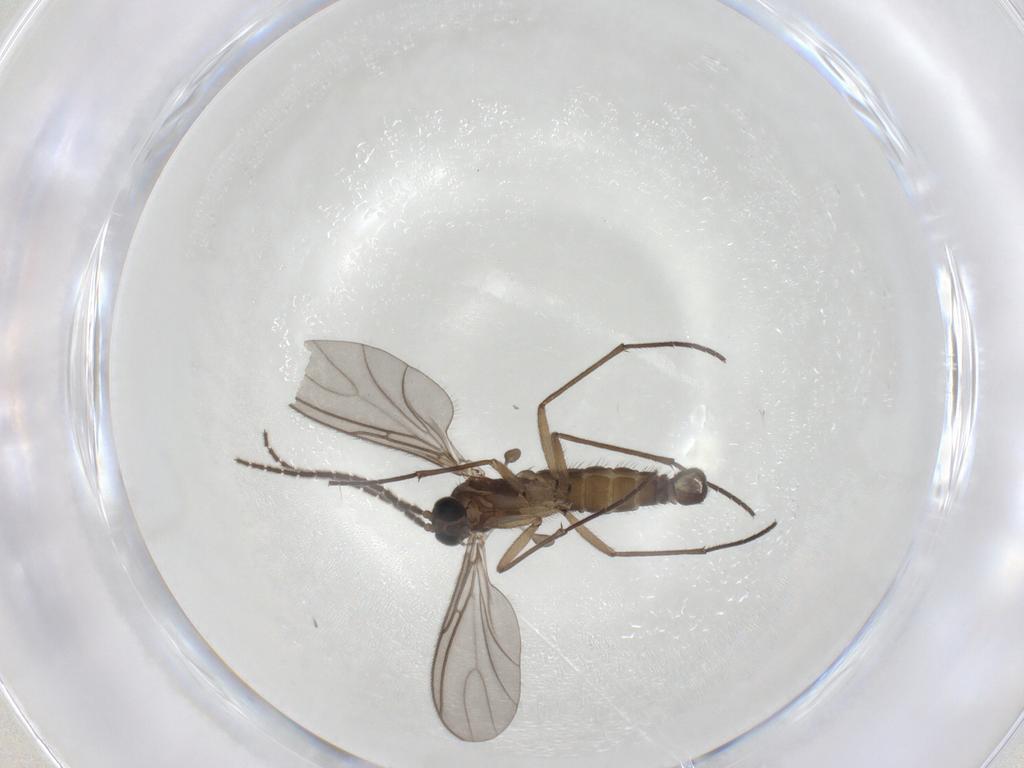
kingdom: Animalia
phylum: Arthropoda
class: Insecta
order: Diptera
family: Sciaridae
